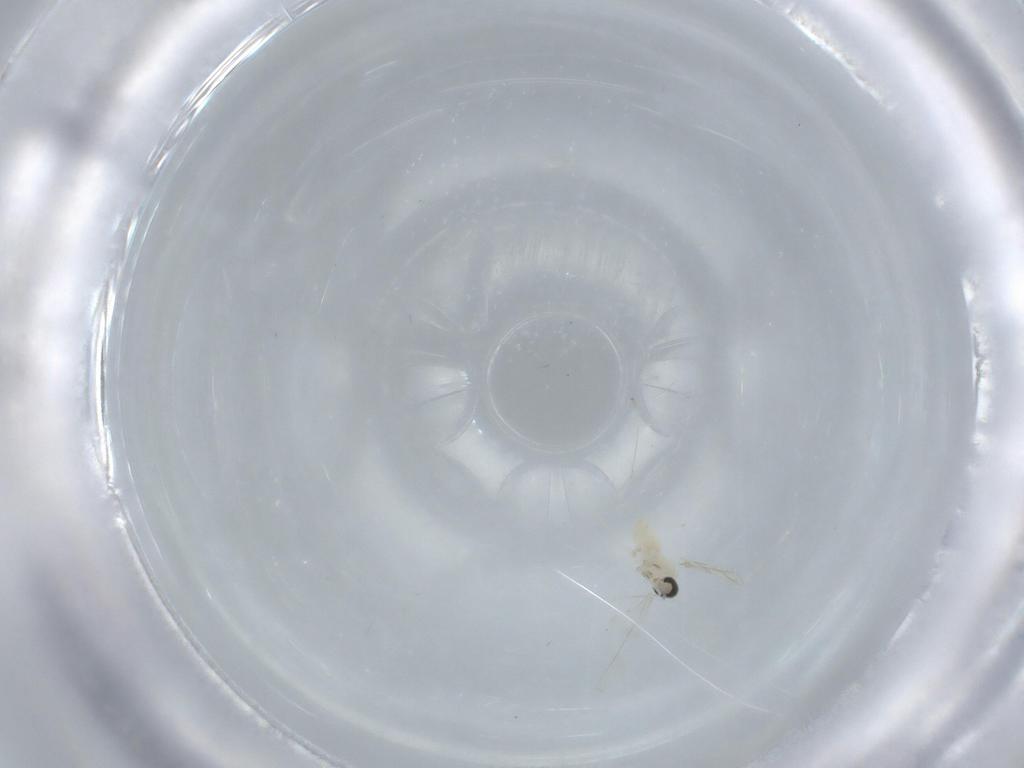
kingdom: Animalia
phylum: Arthropoda
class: Insecta
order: Diptera
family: Cecidomyiidae
